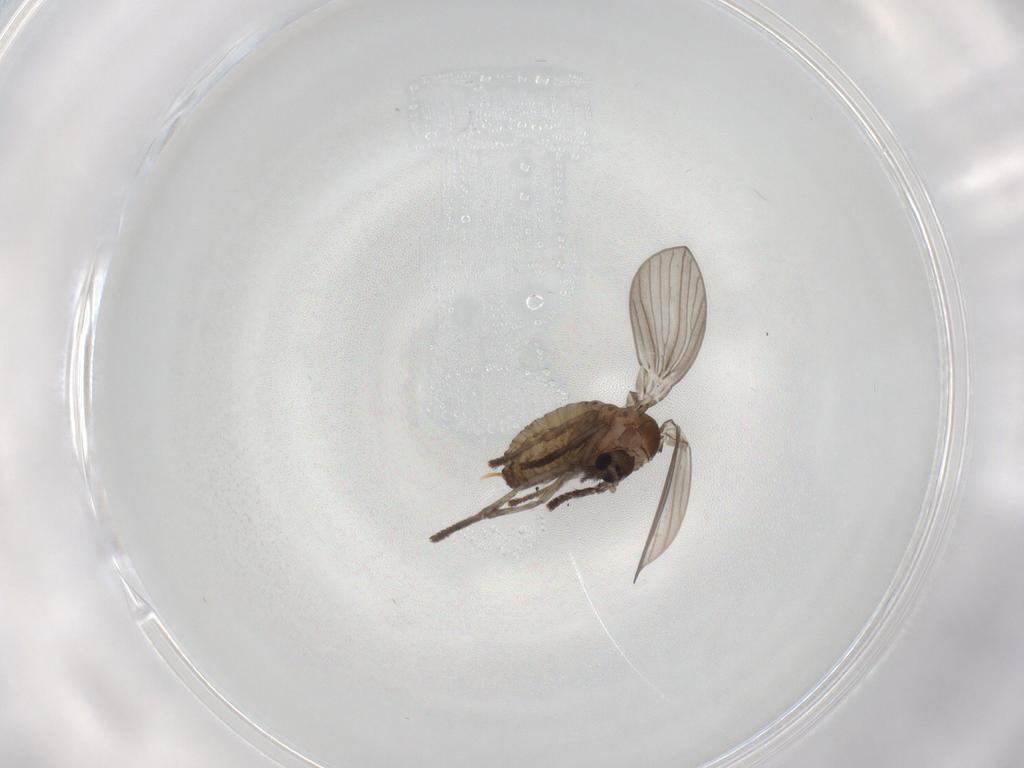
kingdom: Animalia
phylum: Arthropoda
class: Insecta
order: Diptera
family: Psychodidae
